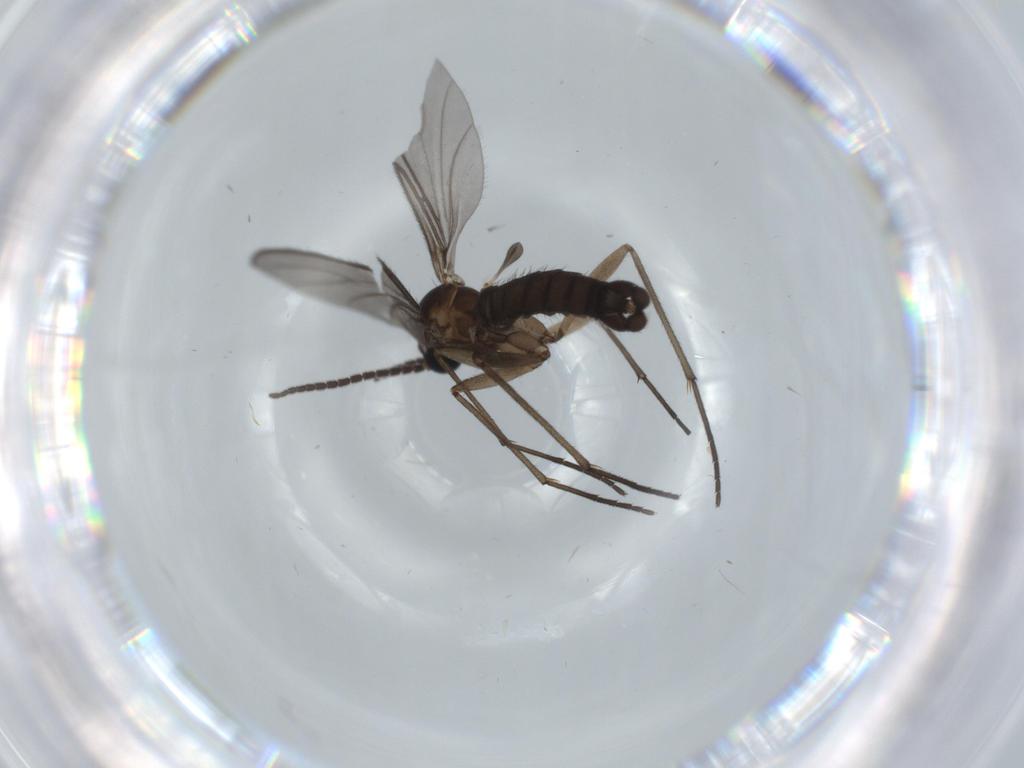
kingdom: Animalia
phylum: Arthropoda
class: Insecta
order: Diptera
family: Sciaridae
